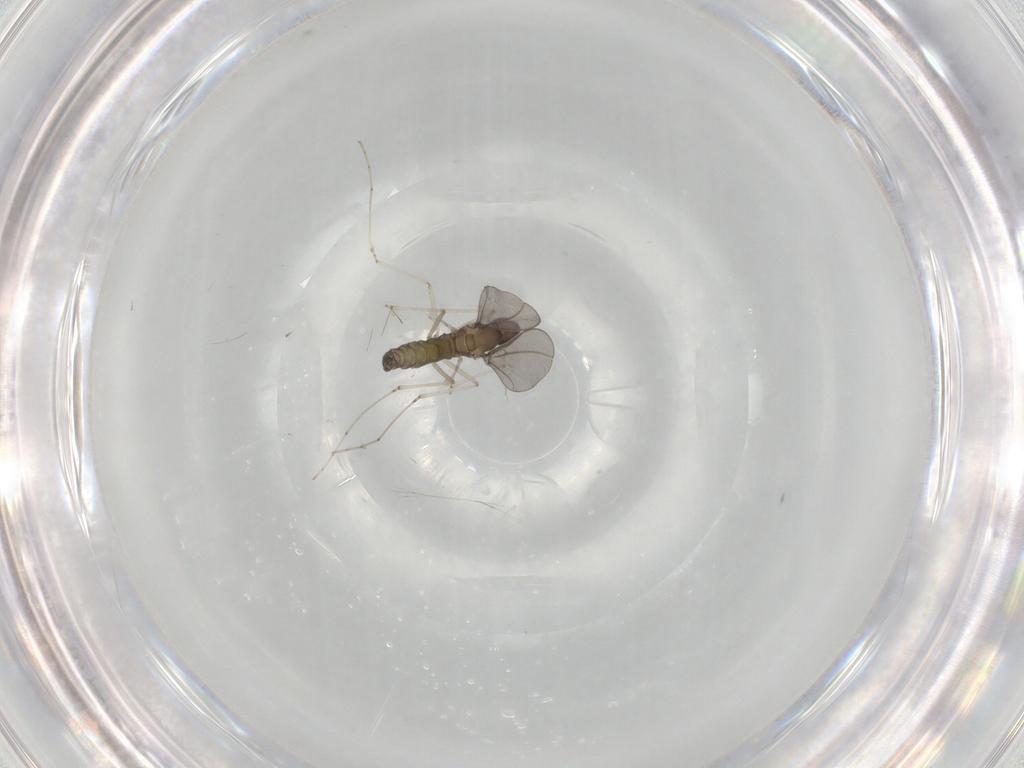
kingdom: Animalia
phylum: Arthropoda
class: Insecta
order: Diptera
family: Cecidomyiidae
